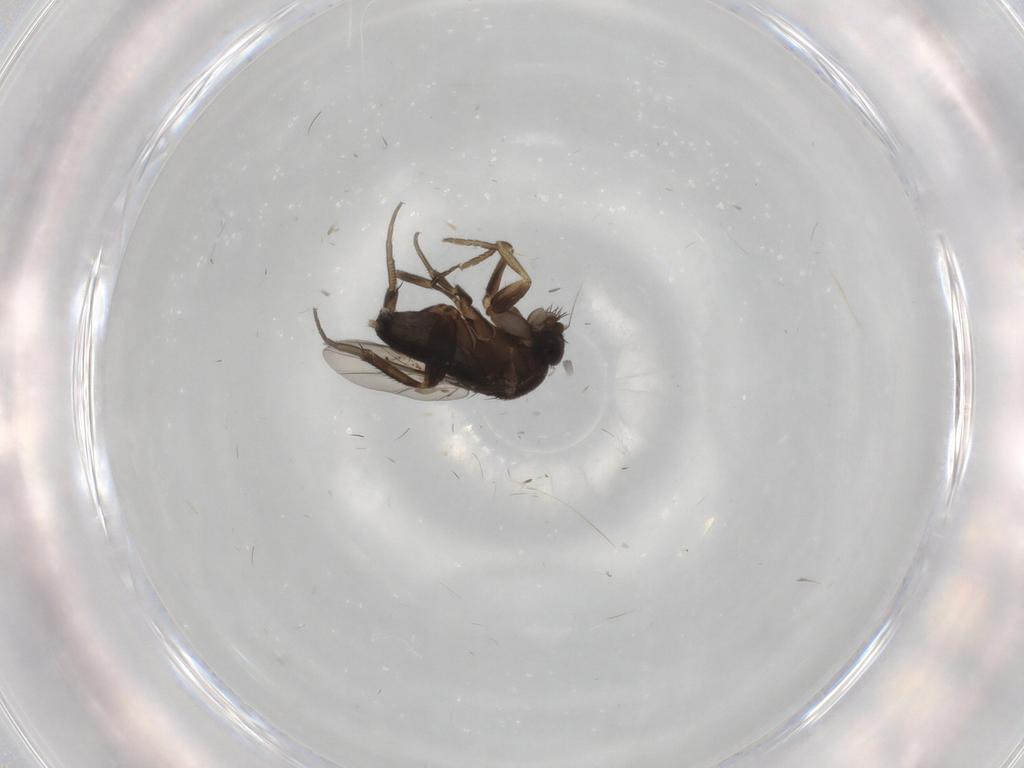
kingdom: Animalia
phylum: Arthropoda
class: Insecta
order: Diptera
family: Phoridae
